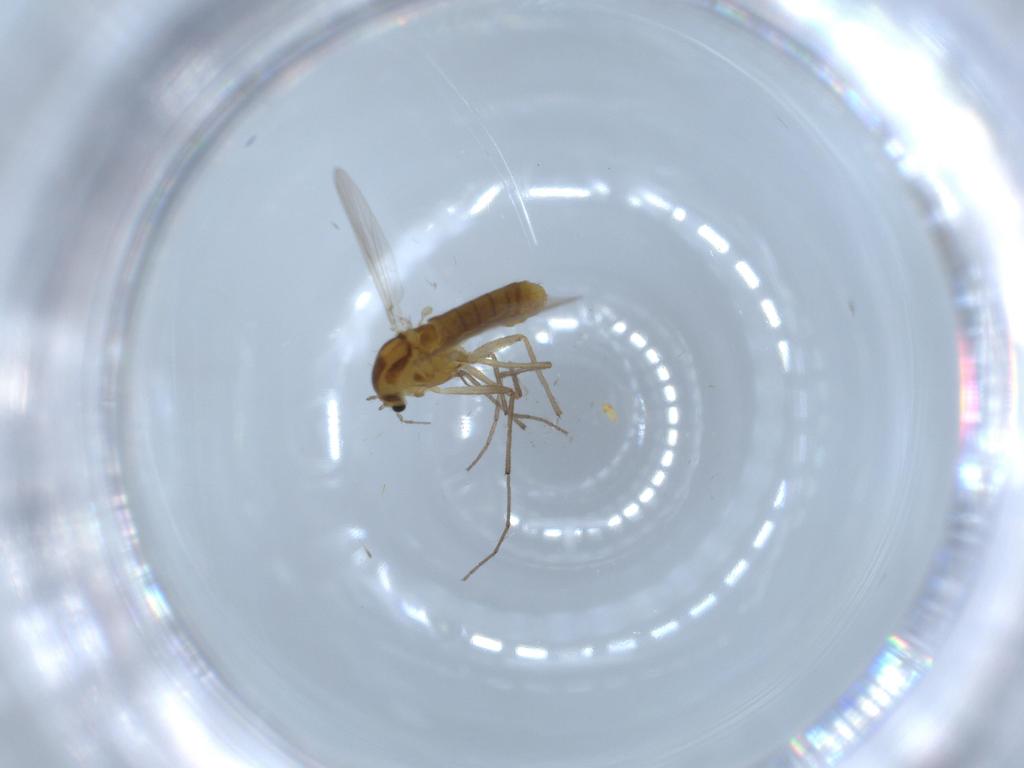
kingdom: Animalia
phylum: Arthropoda
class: Insecta
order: Diptera
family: Chironomidae
